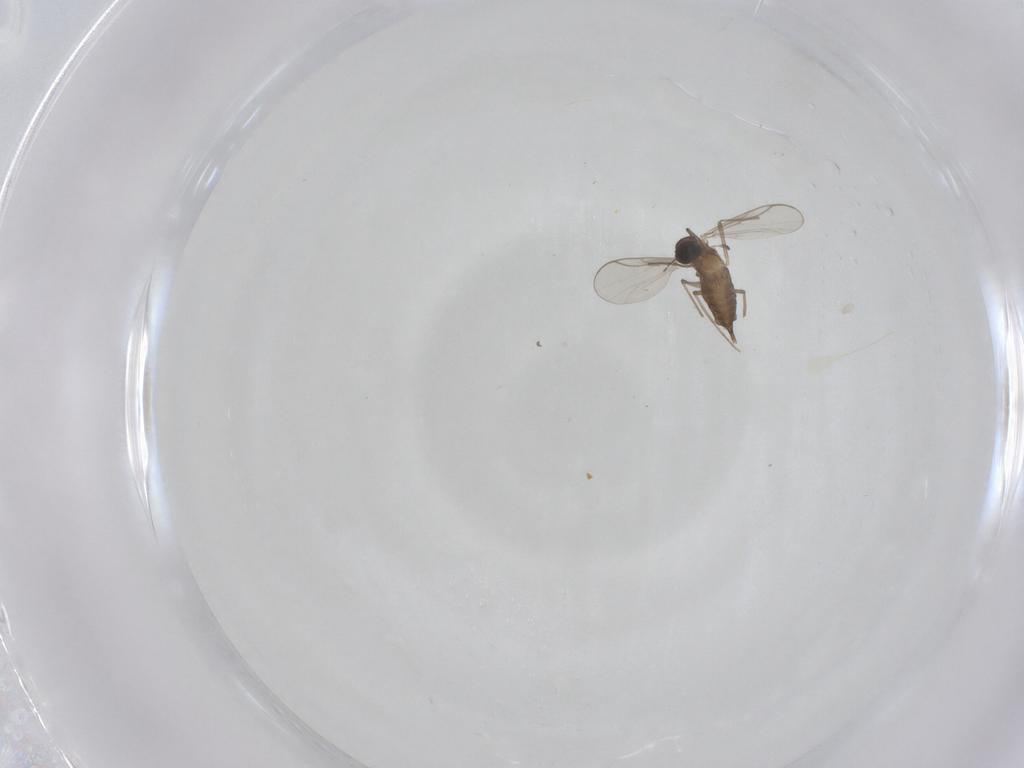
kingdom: Animalia
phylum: Arthropoda
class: Insecta
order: Diptera
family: Chironomidae
